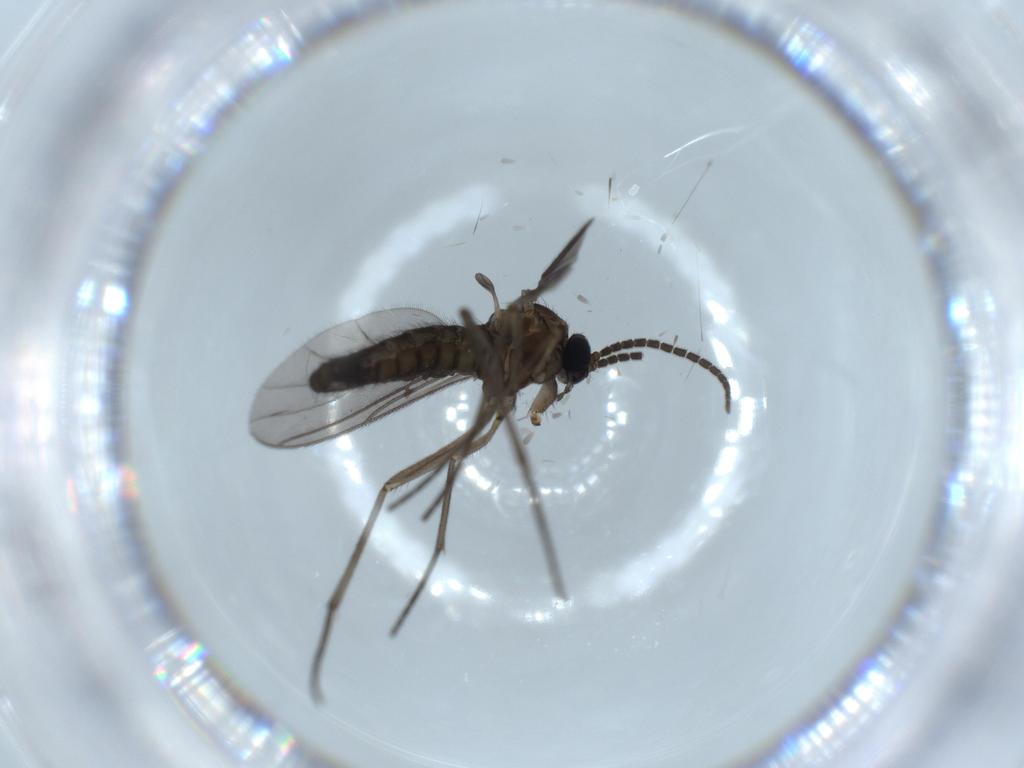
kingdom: Animalia
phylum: Arthropoda
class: Insecta
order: Diptera
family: Sciaridae
